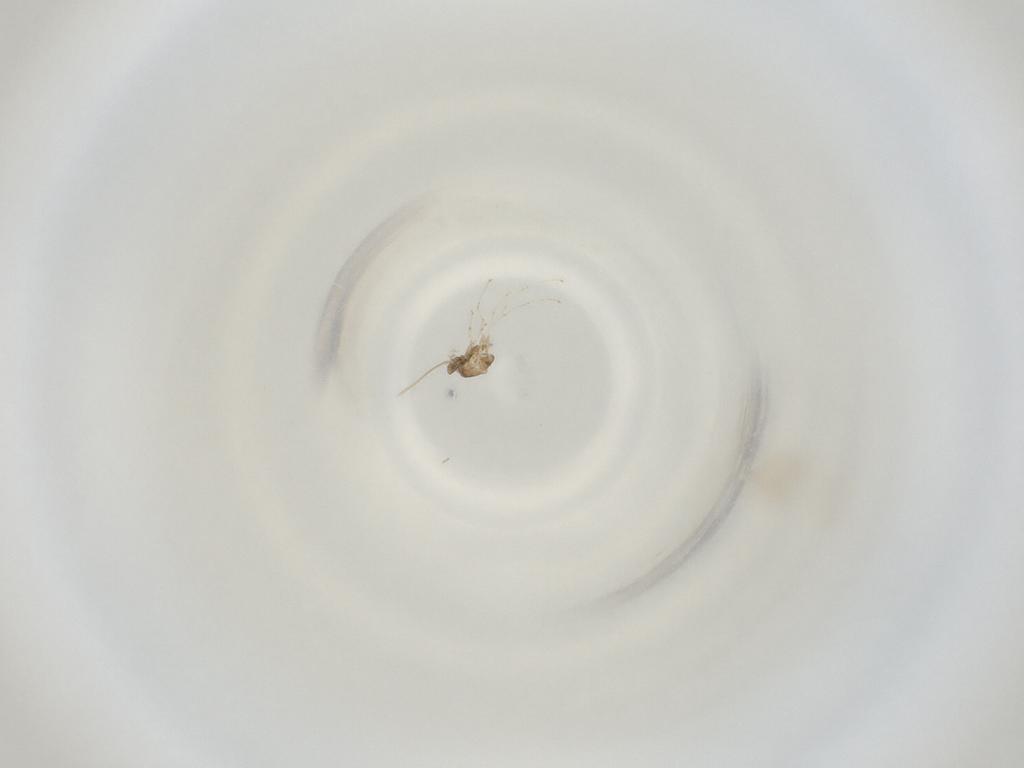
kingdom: Animalia
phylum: Arthropoda
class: Insecta
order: Diptera
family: Cecidomyiidae
